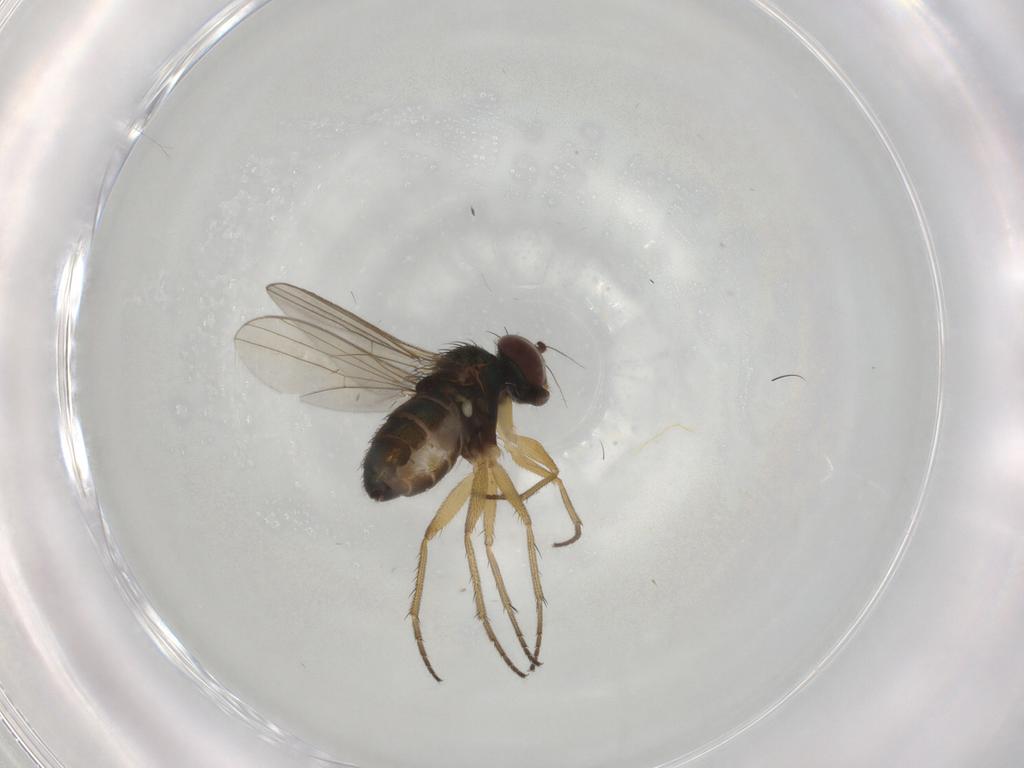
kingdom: Animalia
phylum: Arthropoda
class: Insecta
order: Diptera
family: Dolichopodidae
